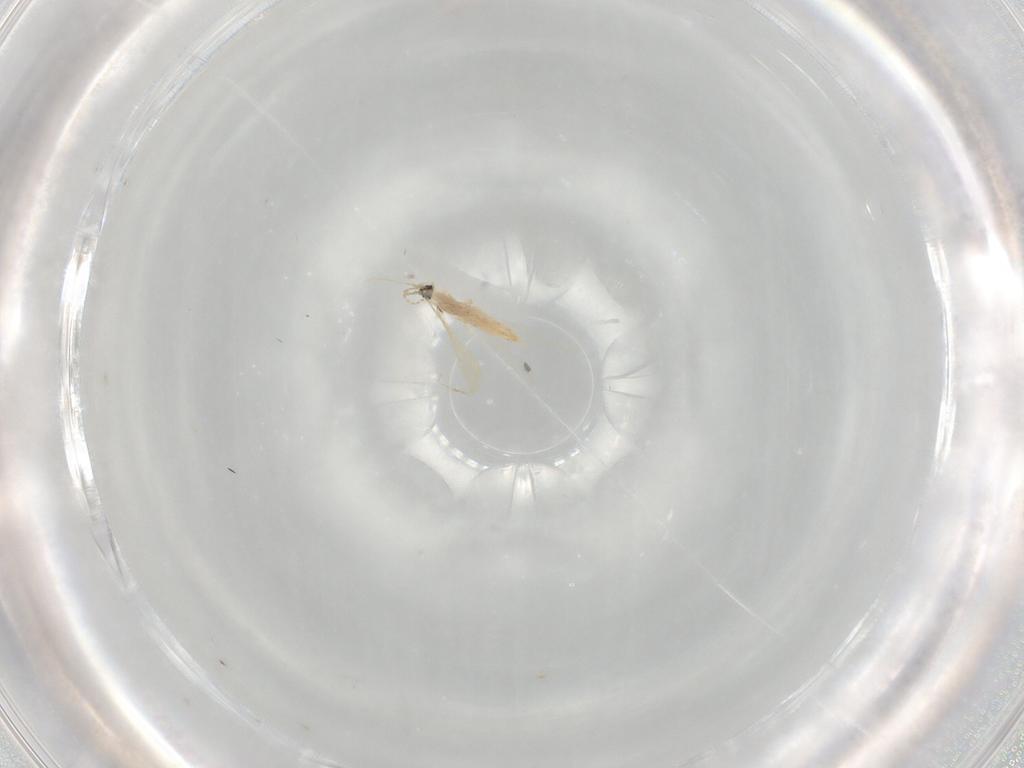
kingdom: Animalia
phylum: Arthropoda
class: Insecta
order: Diptera
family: Cecidomyiidae
